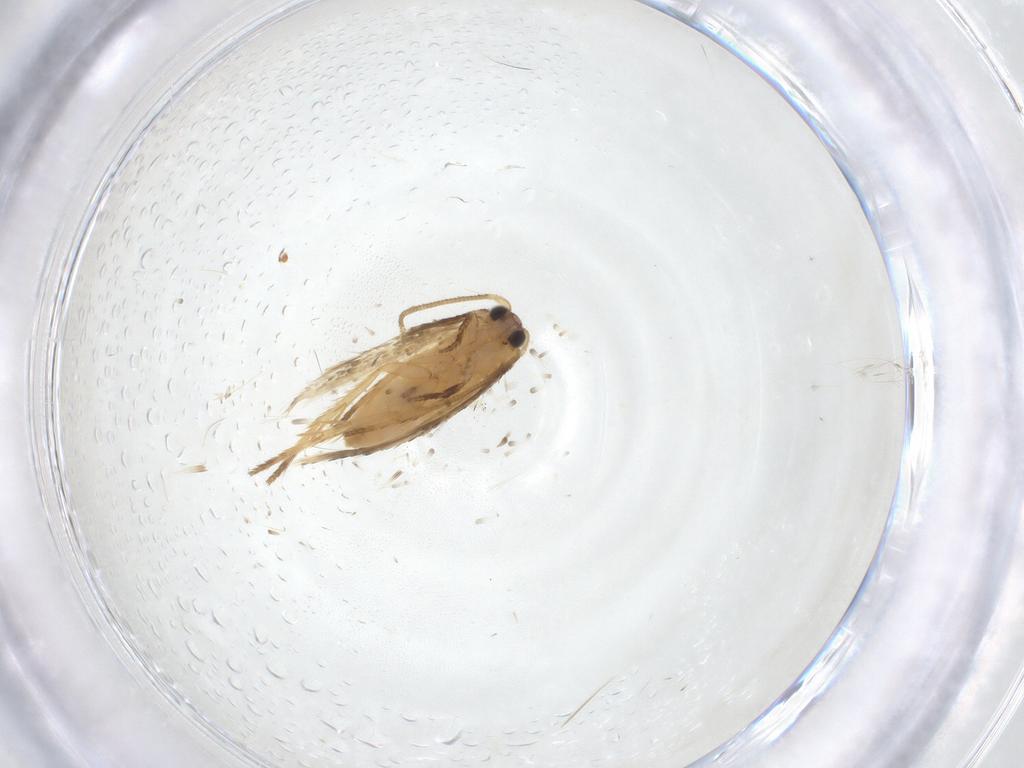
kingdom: Animalia
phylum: Arthropoda
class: Insecta
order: Lepidoptera
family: Nepticulidae
